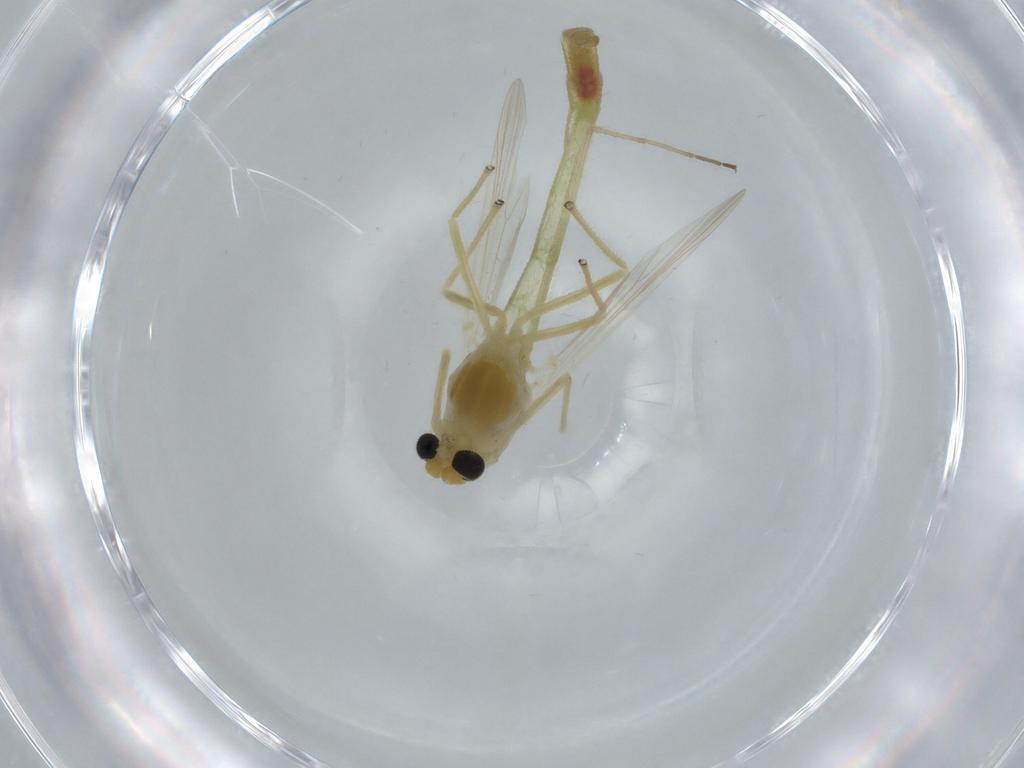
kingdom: Animalia
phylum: Arthropoda
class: Insecta
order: Diptera
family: Chironomidae
